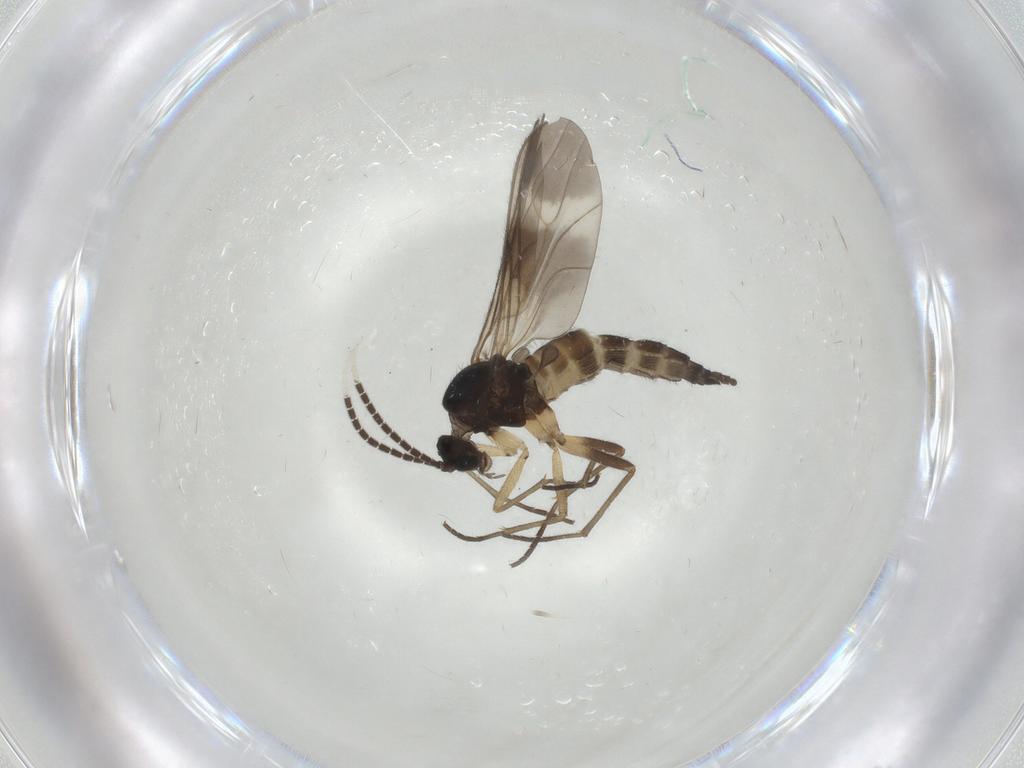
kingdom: Animalia
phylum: Arthropoda
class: Insecta
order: Diptera
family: Sciaridae
